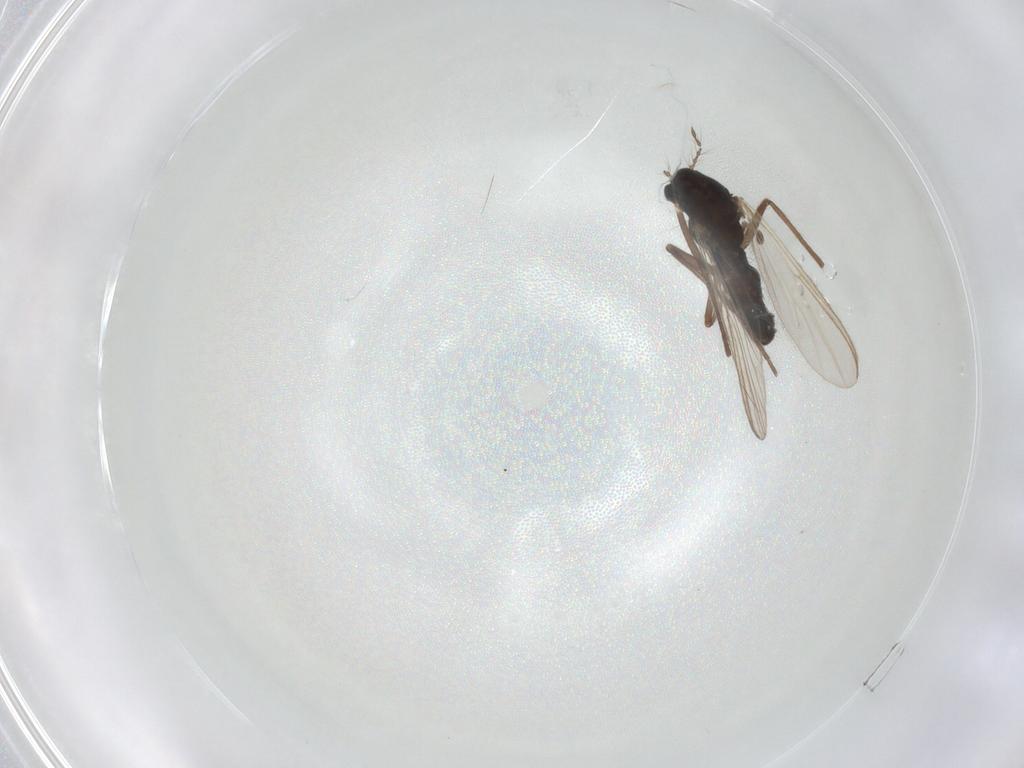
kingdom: Animalia
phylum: Arthropoda
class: Insecta
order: Diptera
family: Chironomidae
